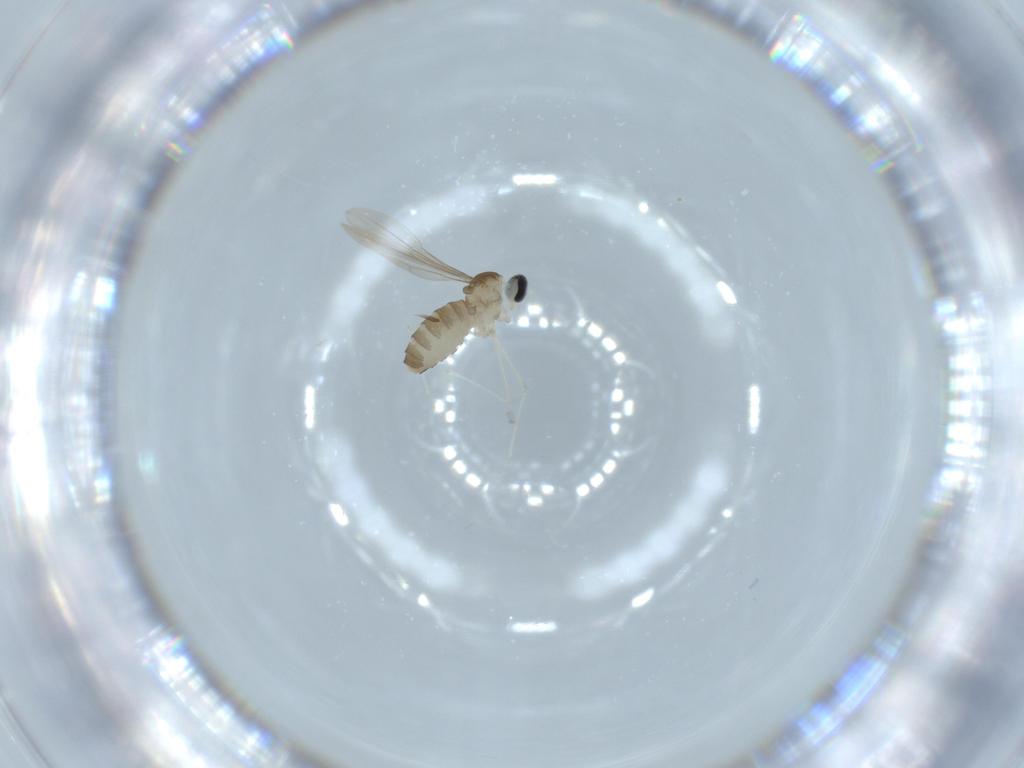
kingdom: Animalia
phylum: Arthropoda
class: Insecta
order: Diptera
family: Cecidomyiidae
